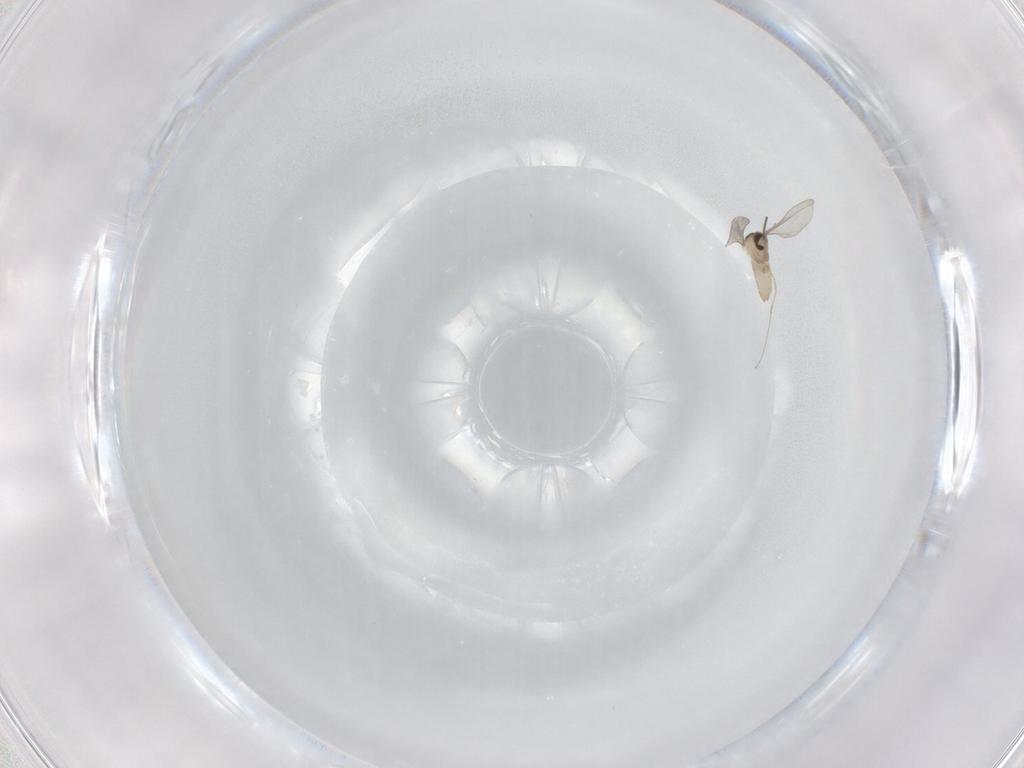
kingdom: Animalia
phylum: Arthropoda
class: Insecta
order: Diptera
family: Cecidomyiidae
